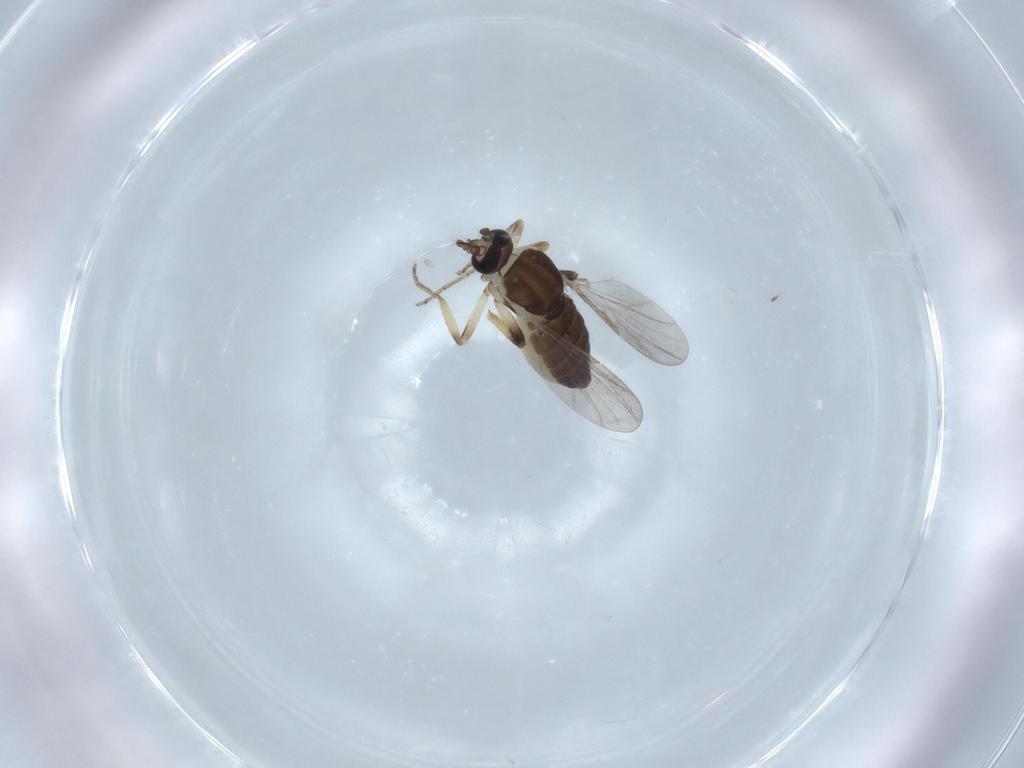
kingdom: Animalia
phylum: Arthropoda
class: Insecta
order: Diptera
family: Ceratopogonidae
